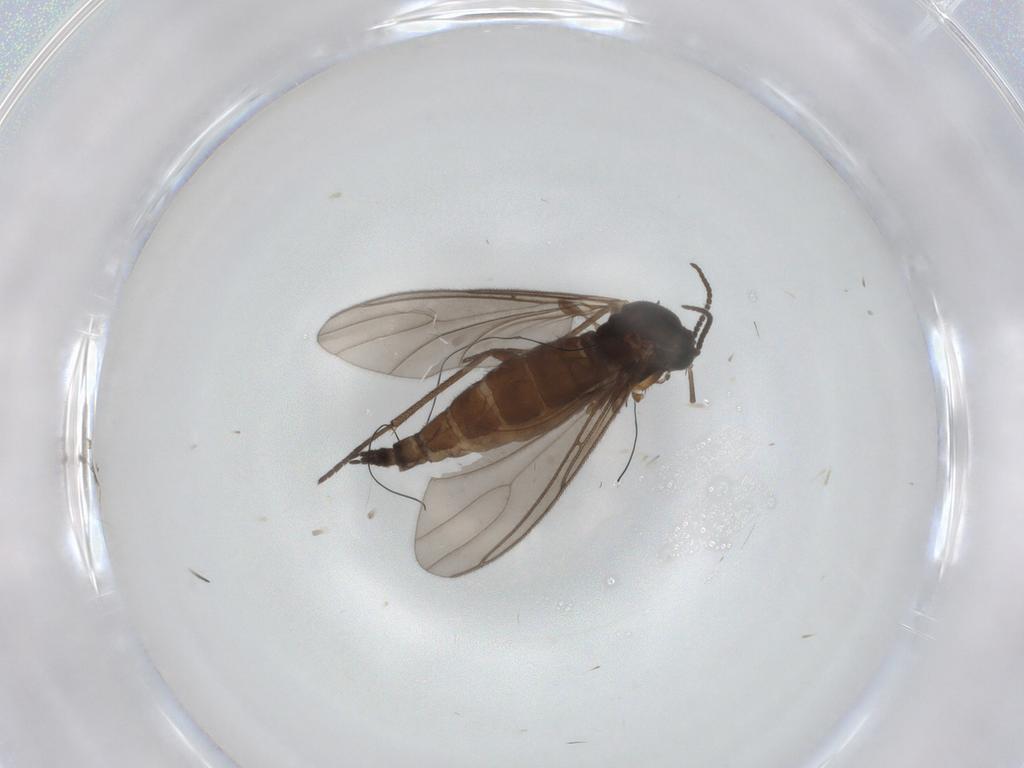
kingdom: Animalia
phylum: Arthropoda
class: Insecta
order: Diptera
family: Sciaridae
